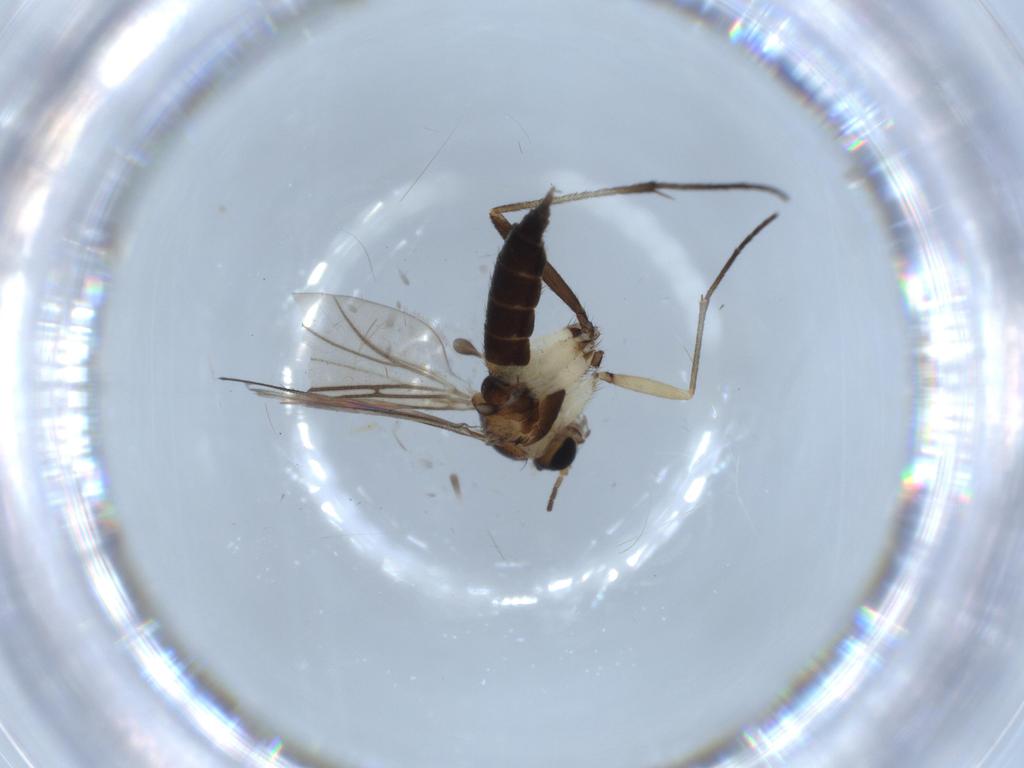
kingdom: Animalia
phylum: Arthropoda
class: Insecta
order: Diptera
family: Sciaridae
